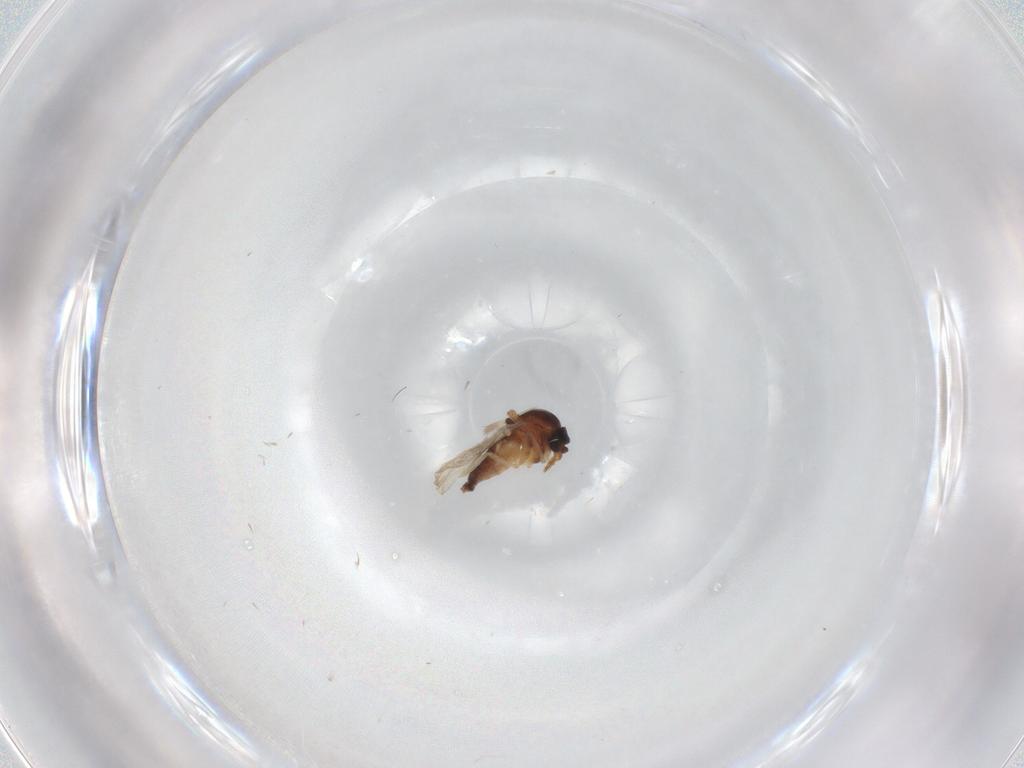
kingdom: Animalia
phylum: Arthropoda
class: Insecta
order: Diptera
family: Ceratopogonidae
